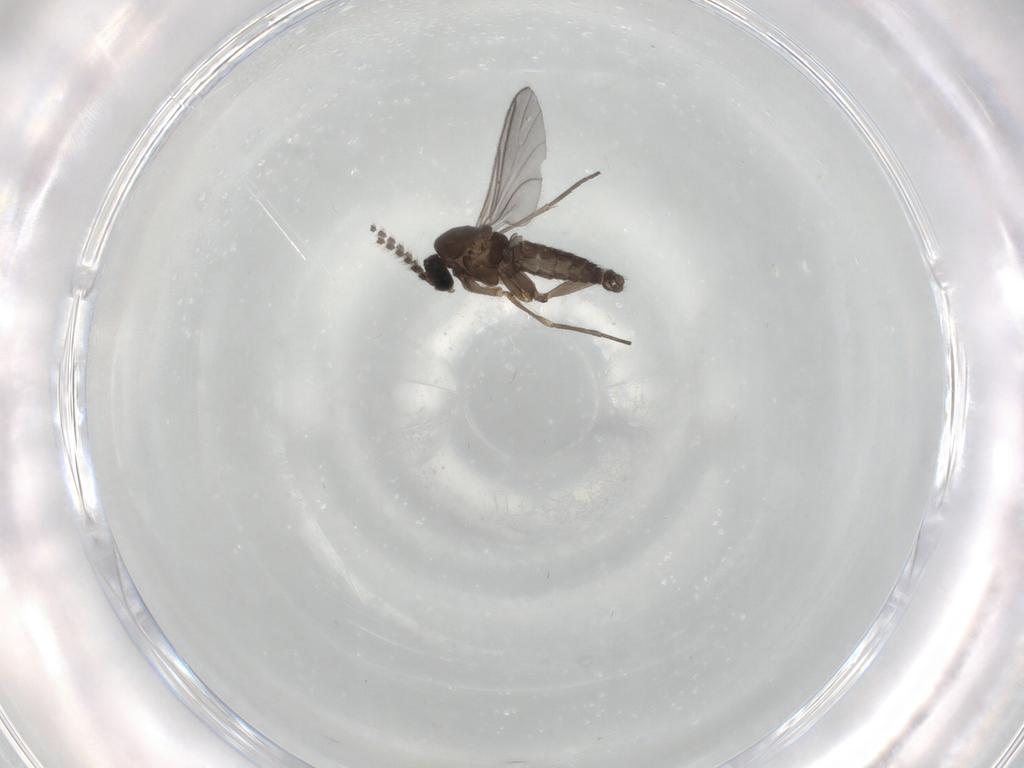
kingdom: Animalia
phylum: Arthropoda
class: Insecta
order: Diptera
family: Sciaridae
